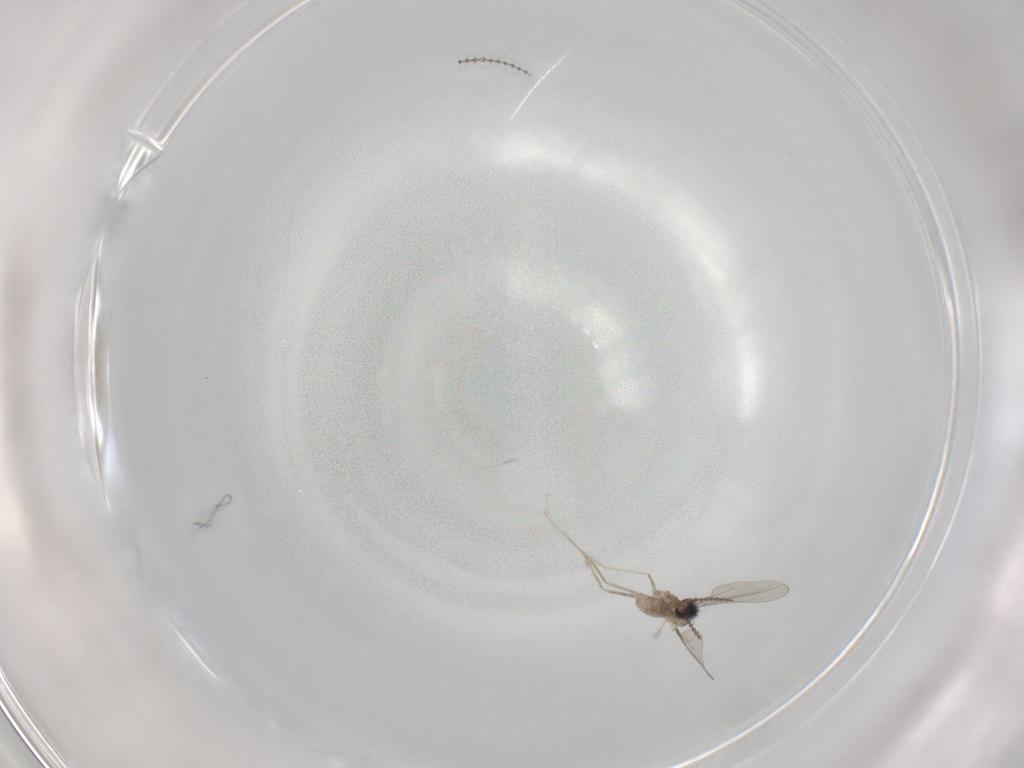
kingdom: Animalia
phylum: Arthropoda
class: Insecta
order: Diptera
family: Cecidomyiidae
